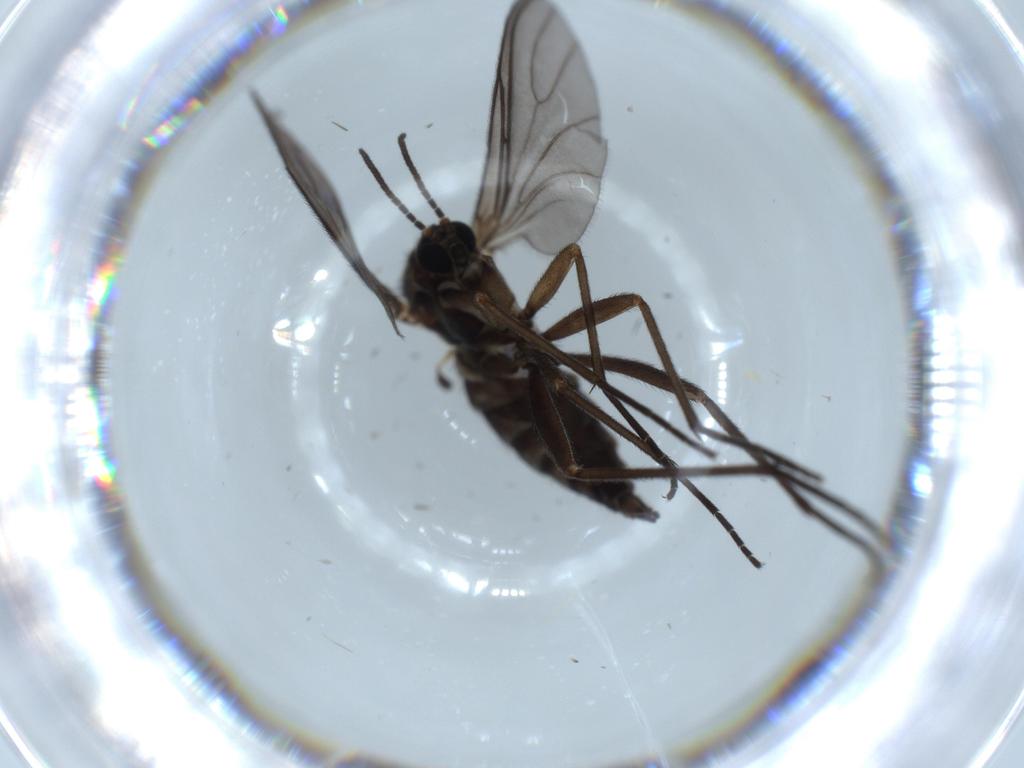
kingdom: Animalia
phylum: Arthropoda
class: Insecta
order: Diptera
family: Sciaridae
